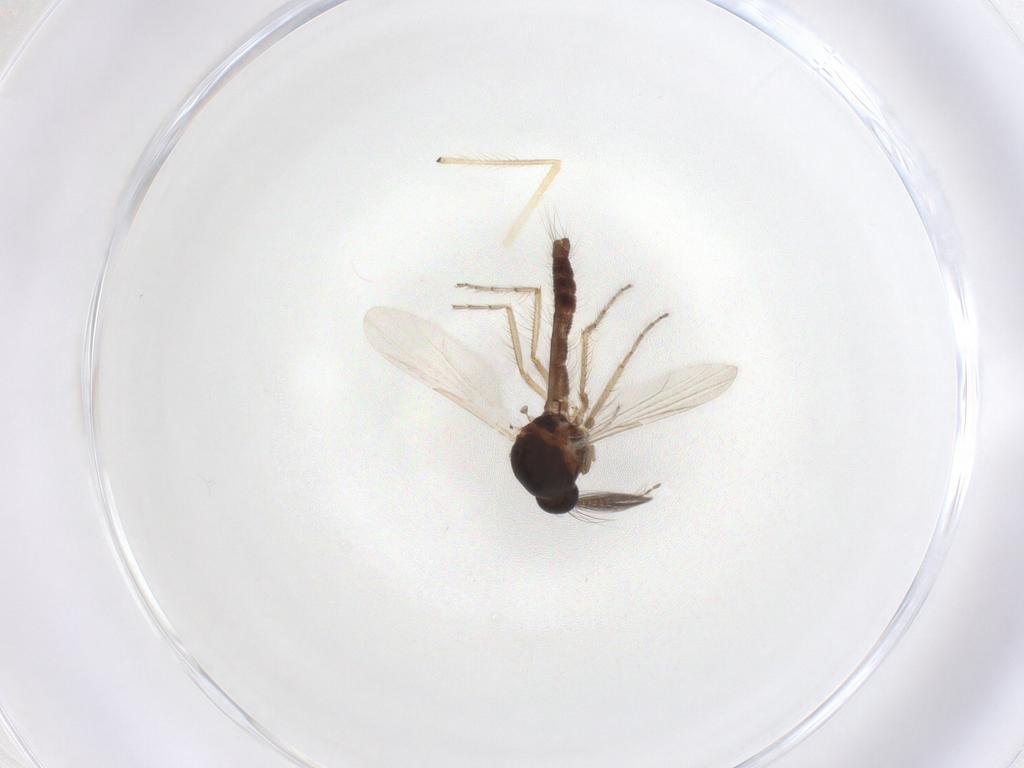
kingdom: Animalia
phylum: Arthropoda
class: Insecta
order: Diptera
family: Ceratopogonidae
